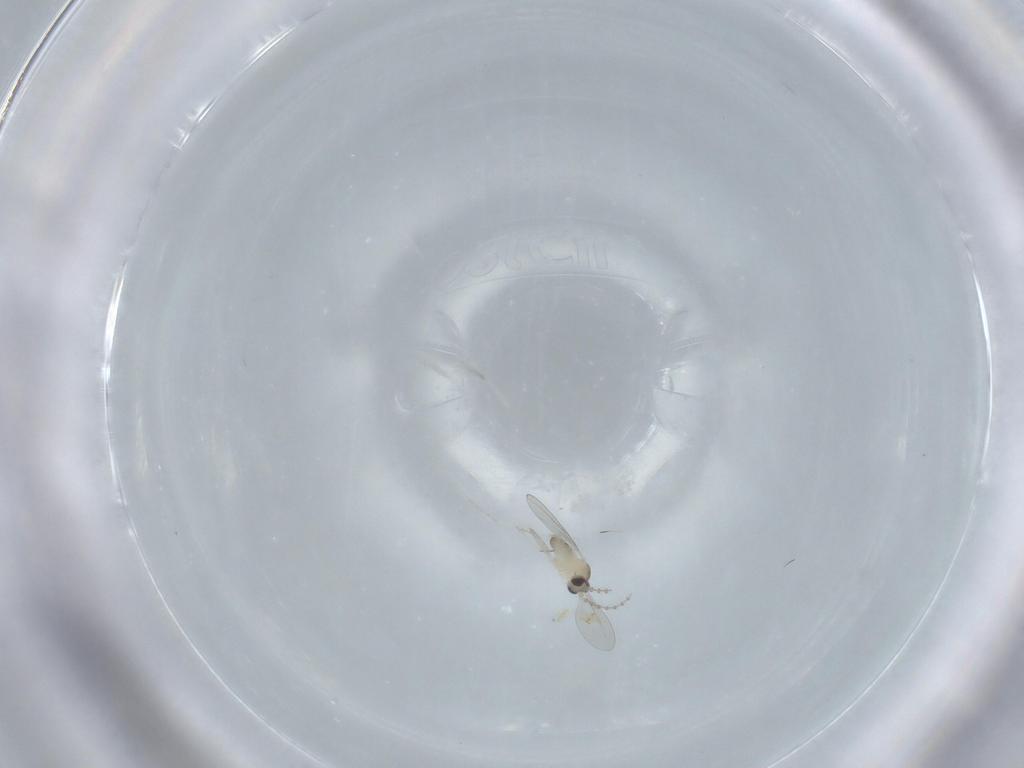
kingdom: Animalia
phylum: Arthropoda
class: Insecta
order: Diptera
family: Cecidomyiidae
